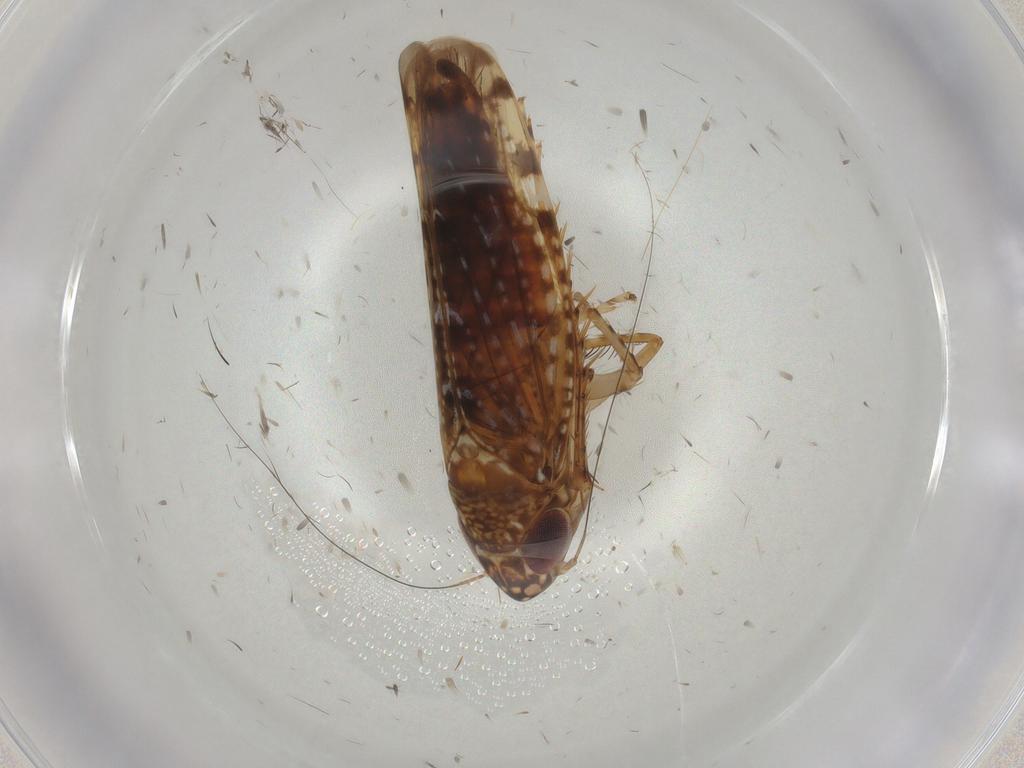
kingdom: Animalia
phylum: Arthropoda
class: Insecta
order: Hemiptera
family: Cicadellidae
